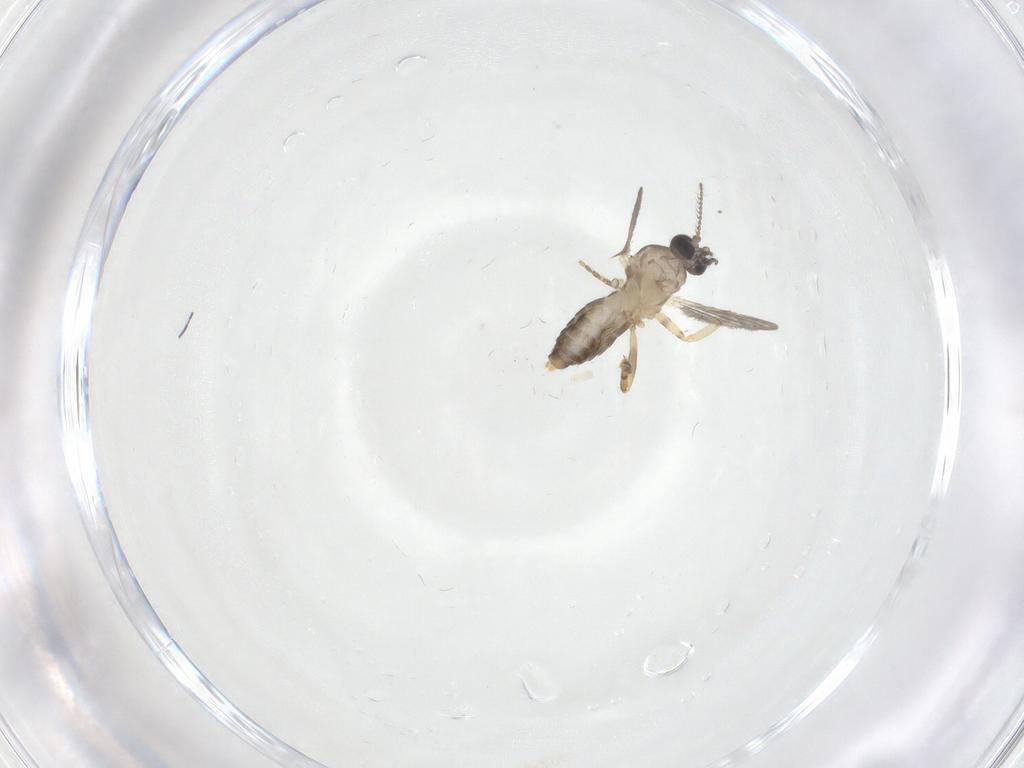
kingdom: Animalia
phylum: Arthropoda
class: Insecta
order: Diptera
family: Ceratopogonidae
